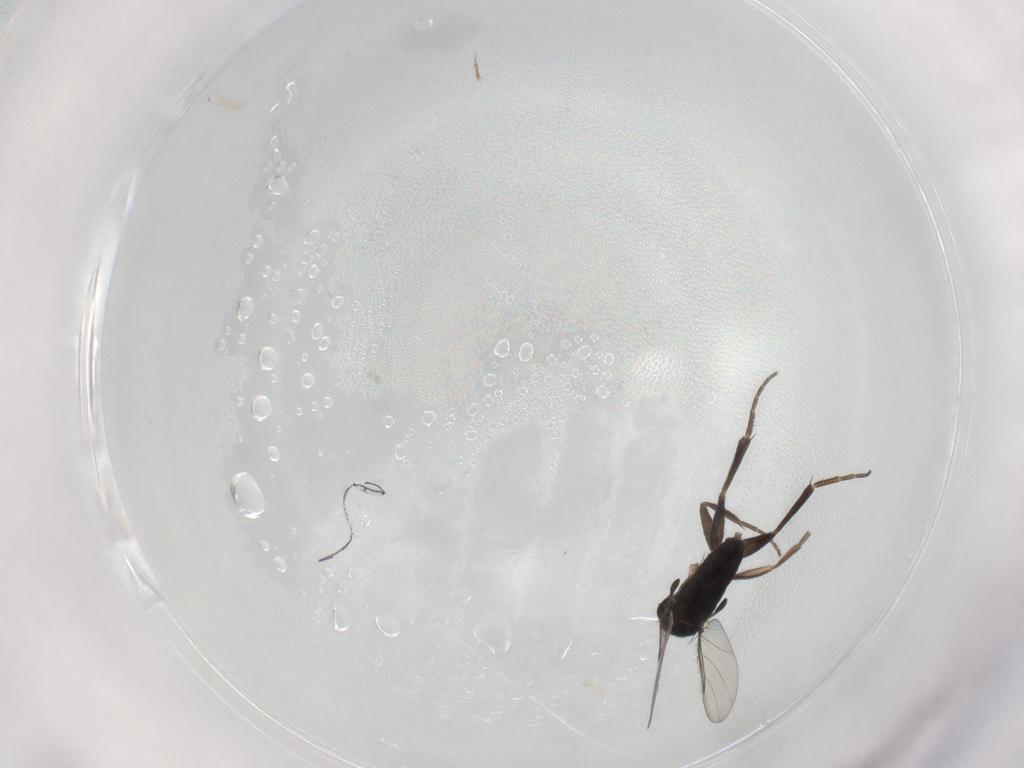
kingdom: Animalia
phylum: Arthropoda
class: Insecta
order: Diptera
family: Phoridae
